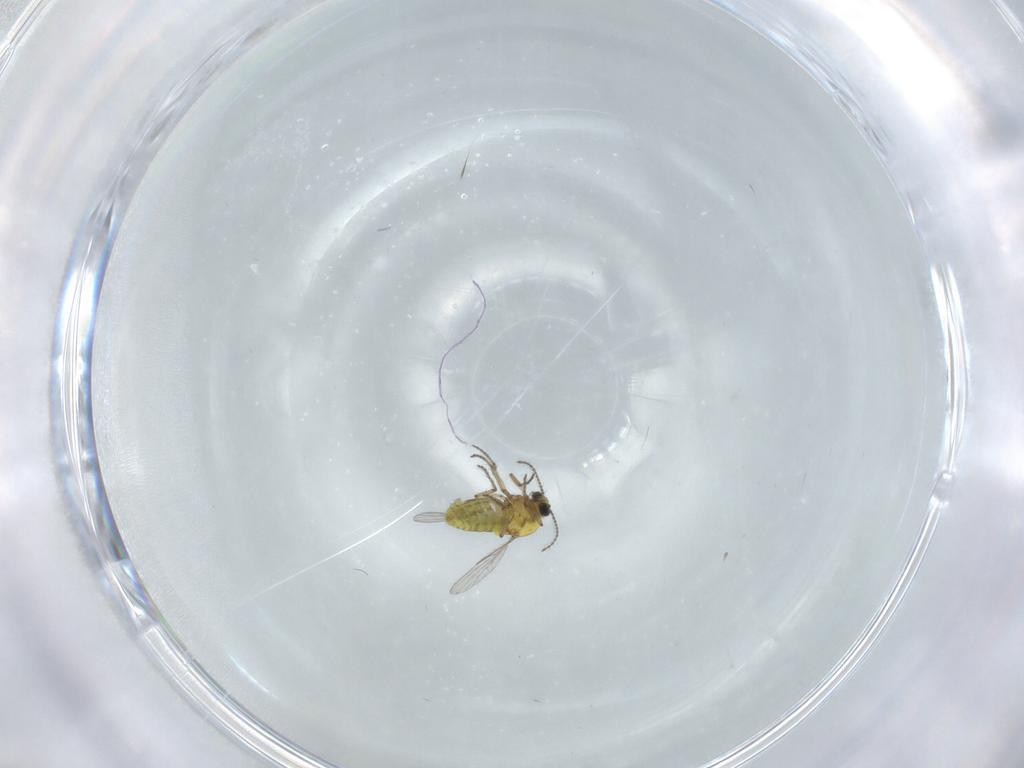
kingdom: Animalia
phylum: Arthropoda
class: Insecta
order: Diptera
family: Ceratopogonidae
